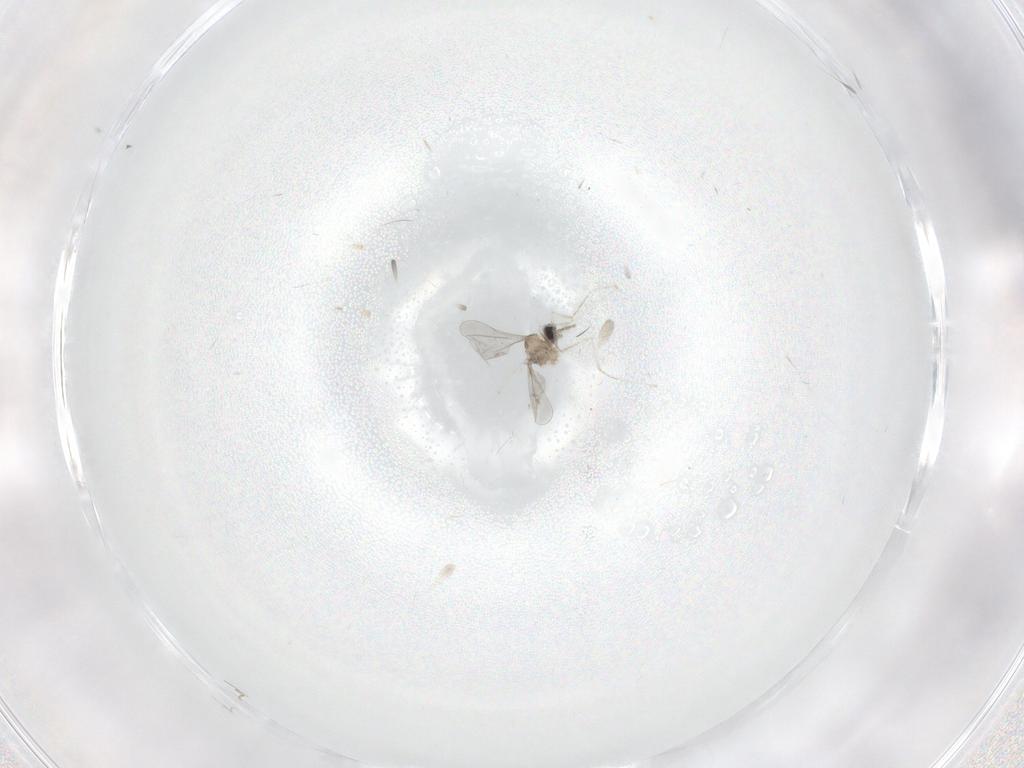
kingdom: Animalia
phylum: Arthropoda
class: Insecta
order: Diptera
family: Cecidomyiidae
